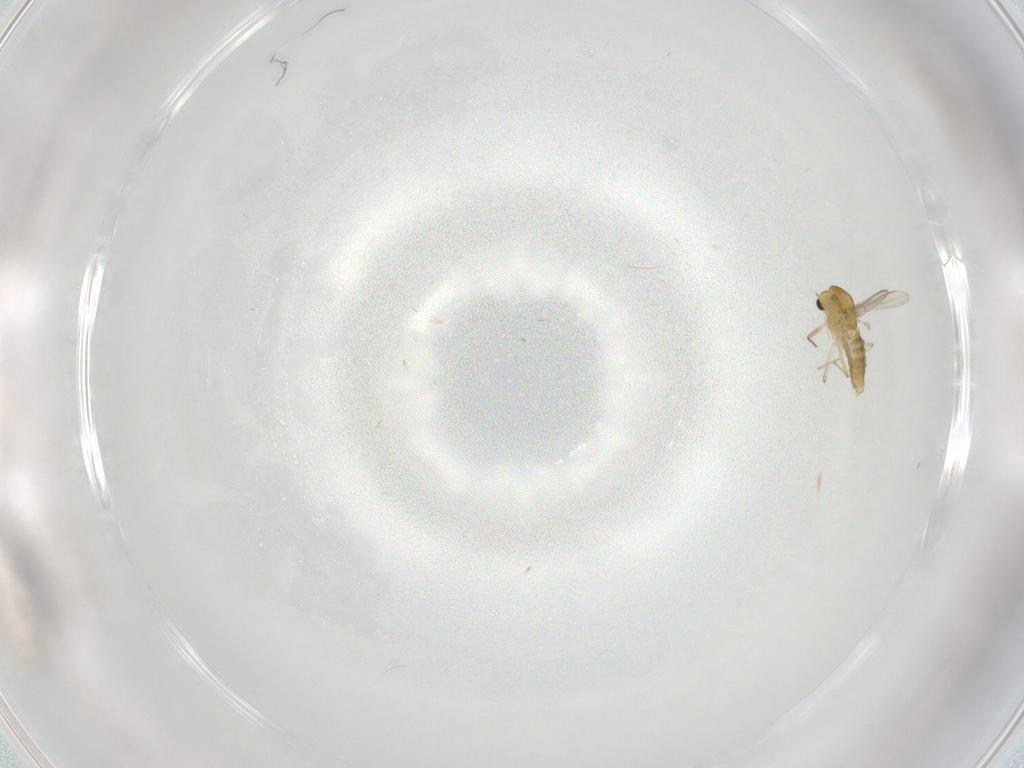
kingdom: Animalia
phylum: Arthropoda
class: Insecta
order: Diptera
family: Chironomidae
